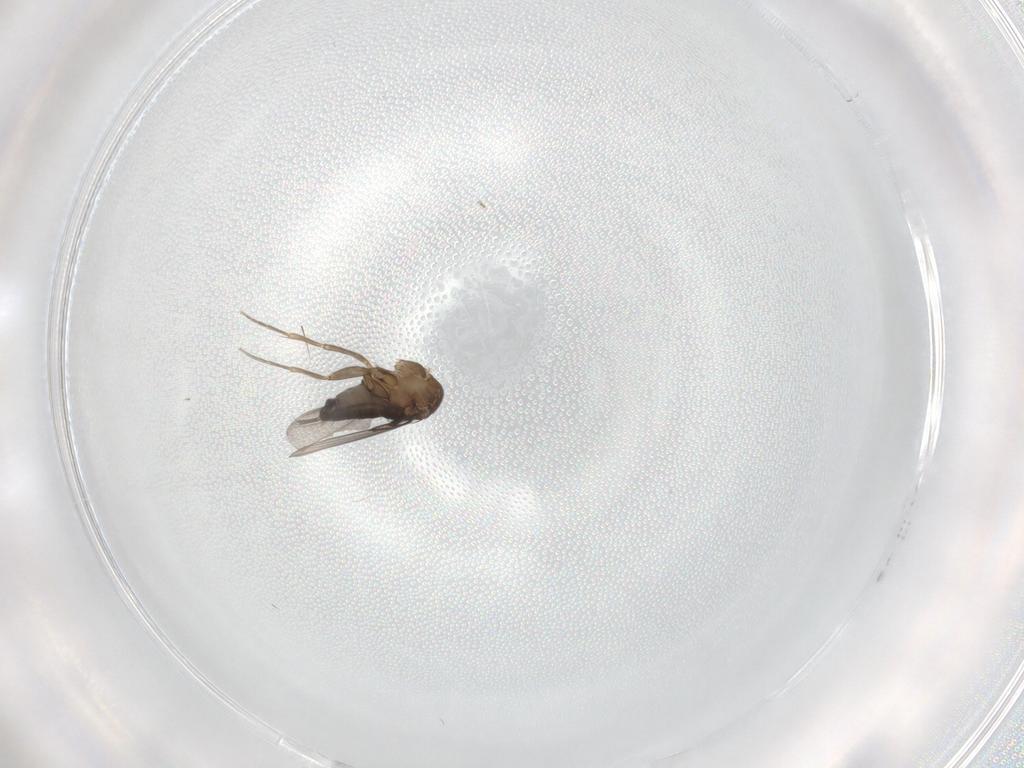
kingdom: Animalia
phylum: Arthropoda
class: Insecta
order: Diptera
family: Phoridae
